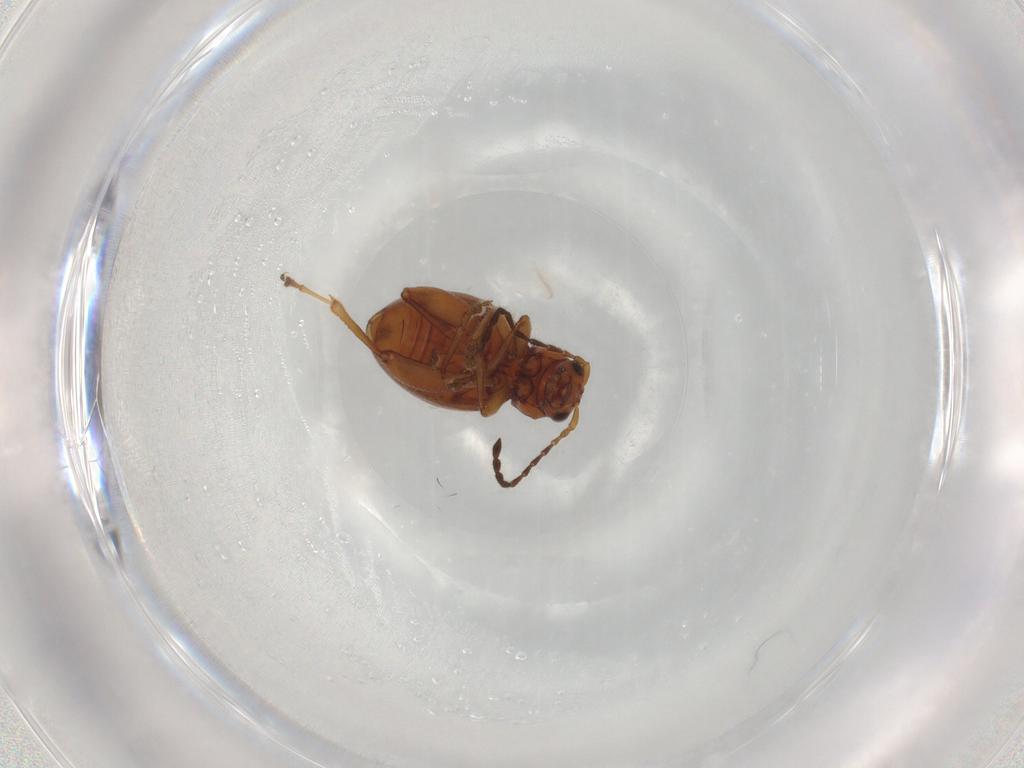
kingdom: Animalia
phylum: Arthropoda
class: Insecta
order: Coleoptera
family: Chrysomelidae
